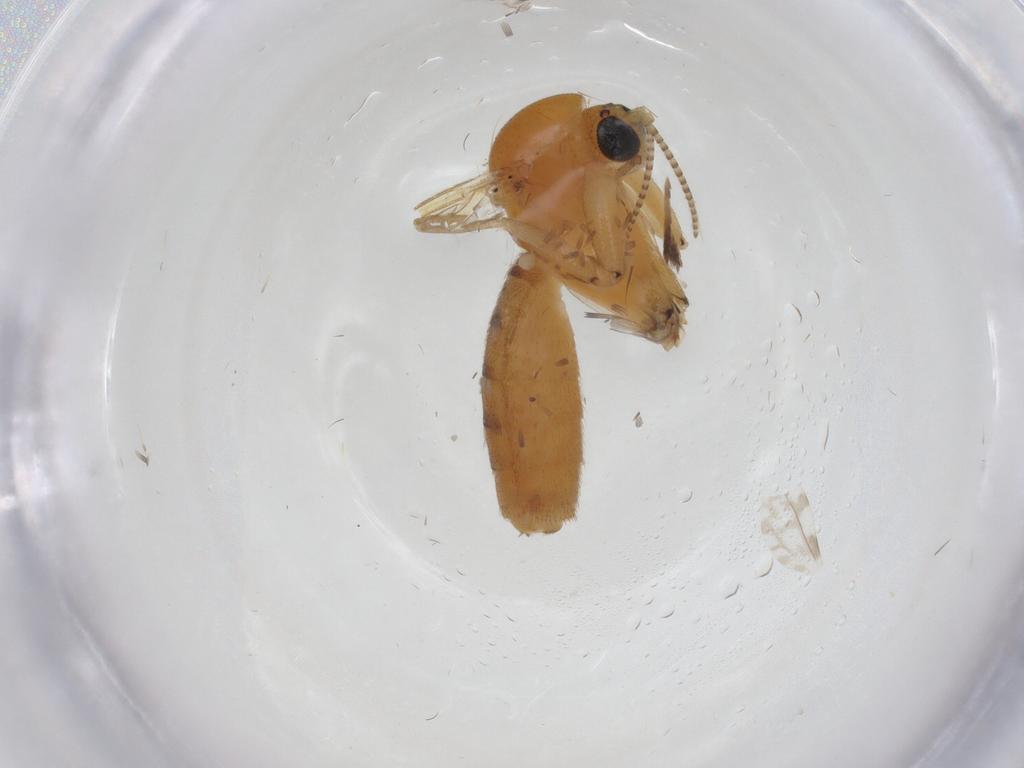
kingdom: Animalia
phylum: Arthropoda
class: Insecta
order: Diptera
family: Mycetophilidae
